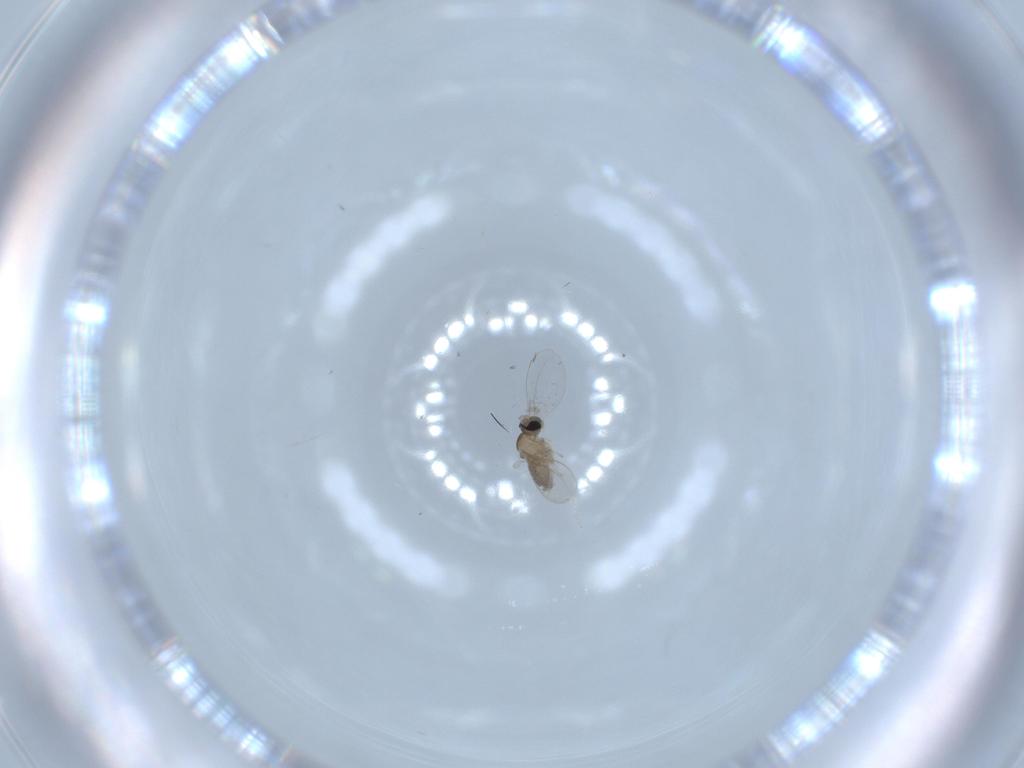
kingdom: Animalia
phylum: Arthropoda
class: Insecta
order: Diptera
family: Cecidomyiidae
